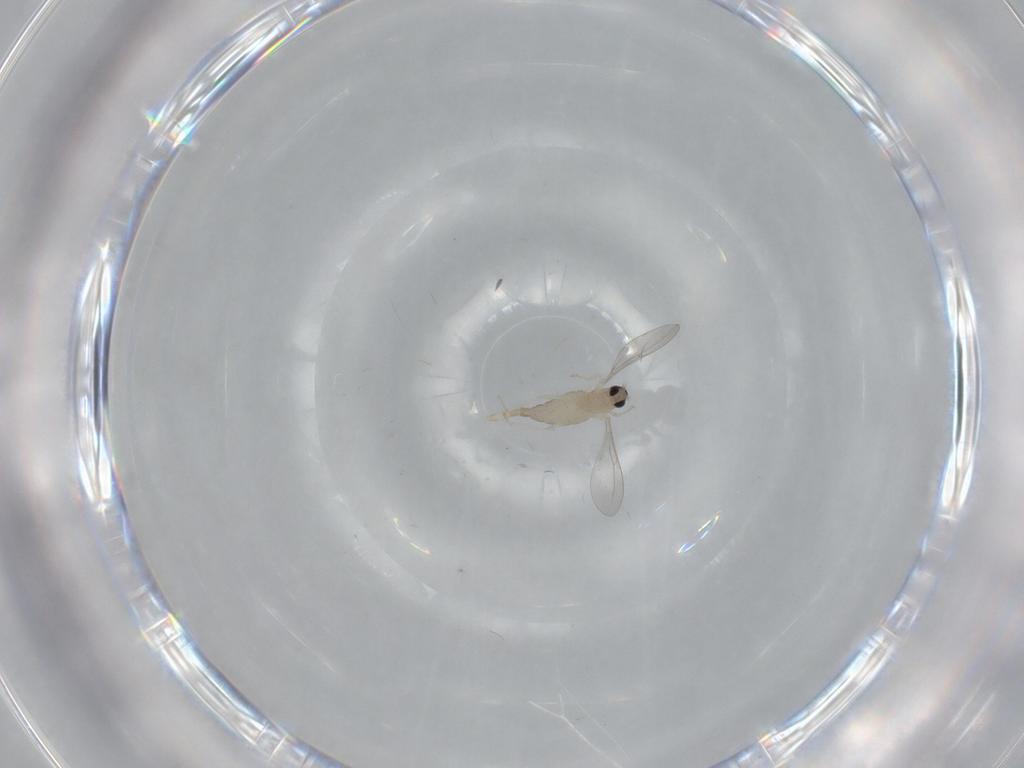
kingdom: Animalia
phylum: Arthropoda
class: Insecta
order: Diptera
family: Cecidomyiidae
